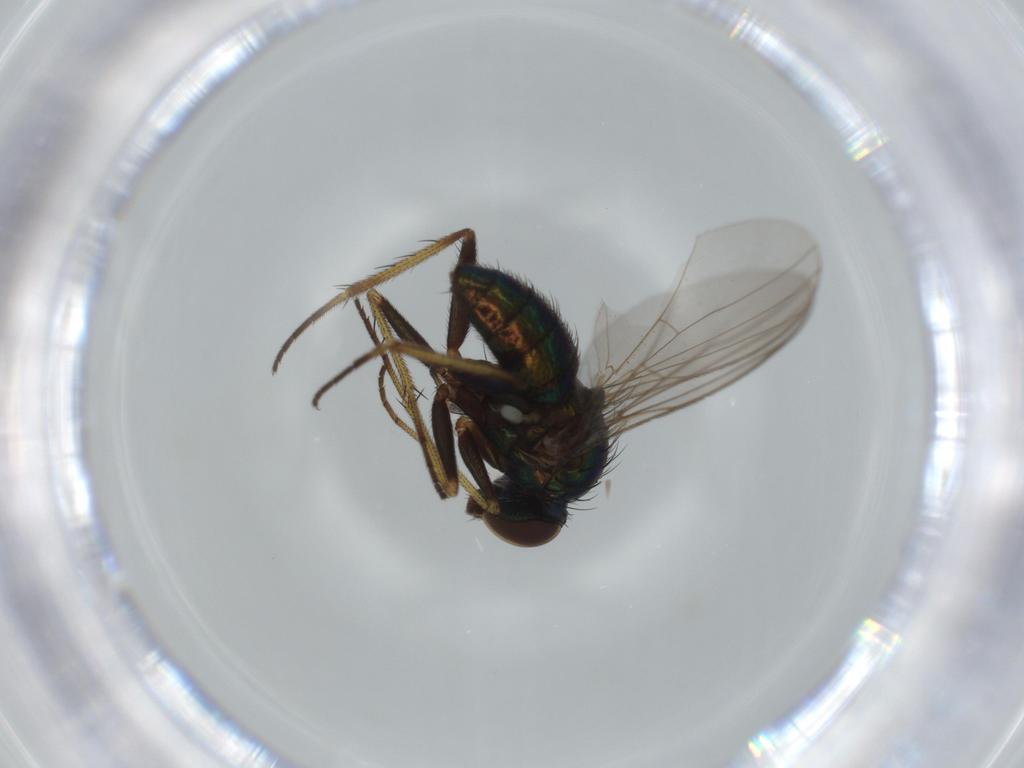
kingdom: Animalia
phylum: Arthropoda
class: Insecta
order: Diptera
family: Dolichopodidae
